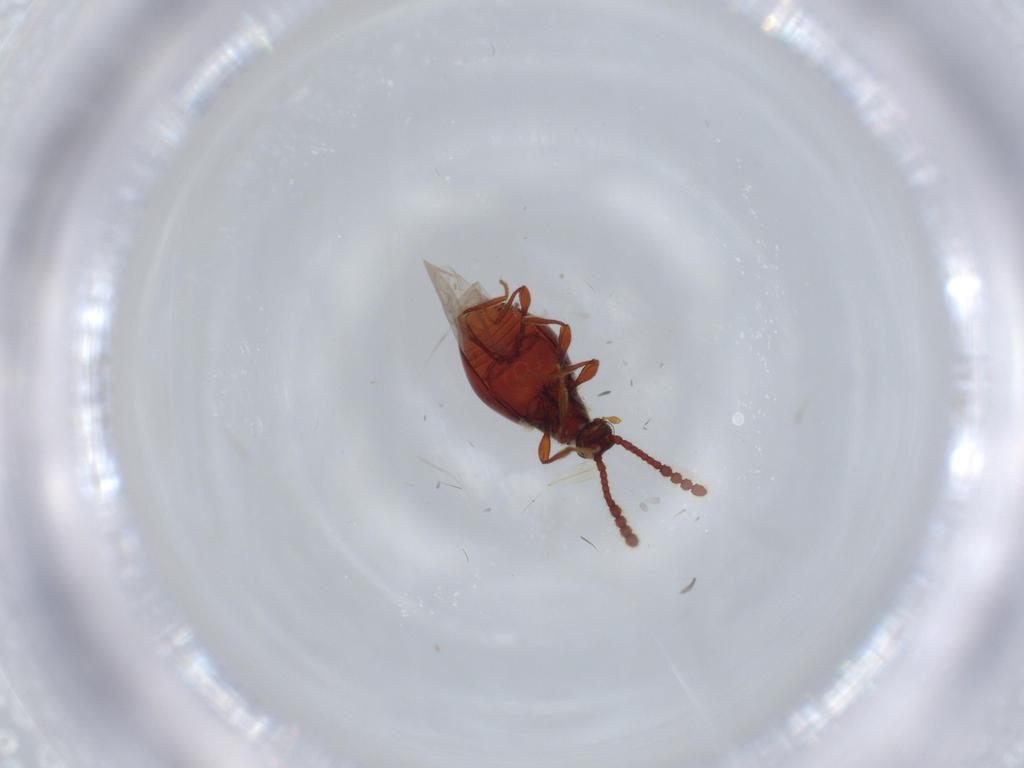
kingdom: Animalia
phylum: Arthropoda
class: Insecta
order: Coleoptera
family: Staphylinidae
